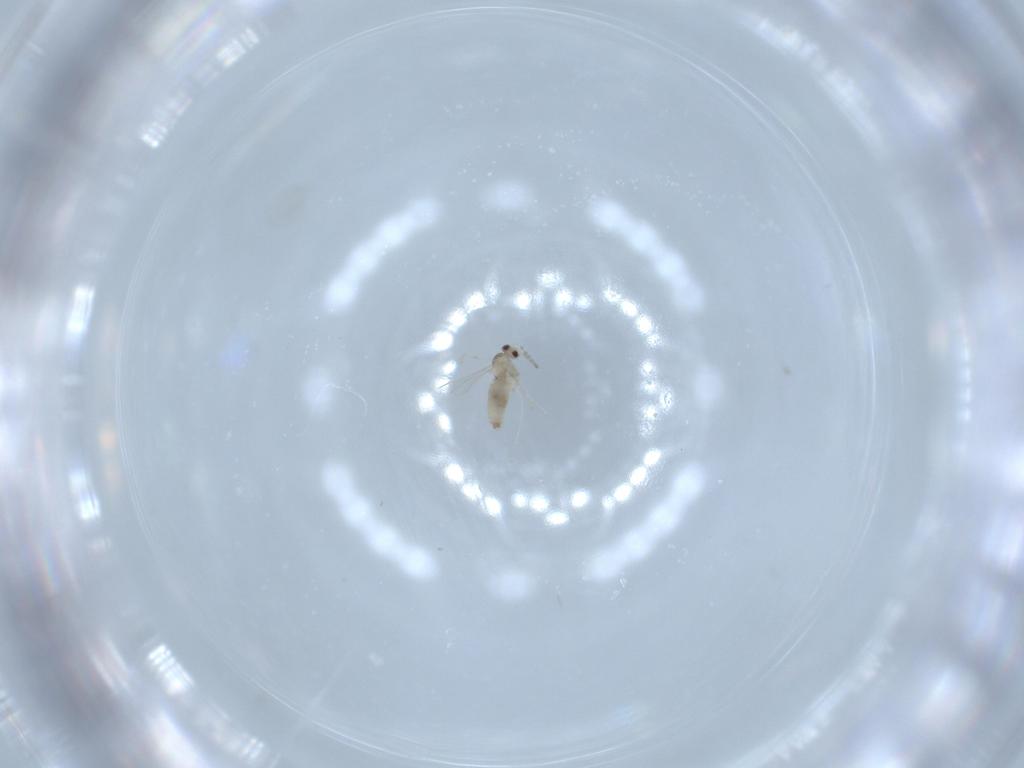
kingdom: Animalia
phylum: Arthropoda
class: Insecta
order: Diptera
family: Cecidomyiidae
